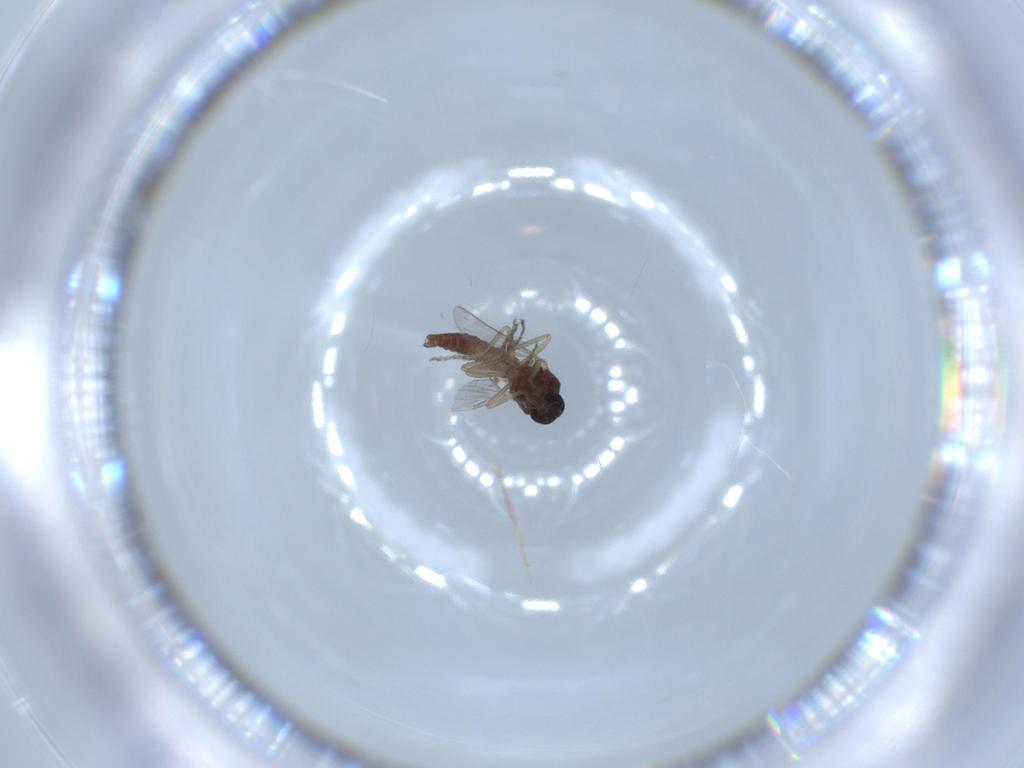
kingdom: Animalia
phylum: Arthropoda
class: Insecta
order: Diptera
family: Ceratopogonidae
